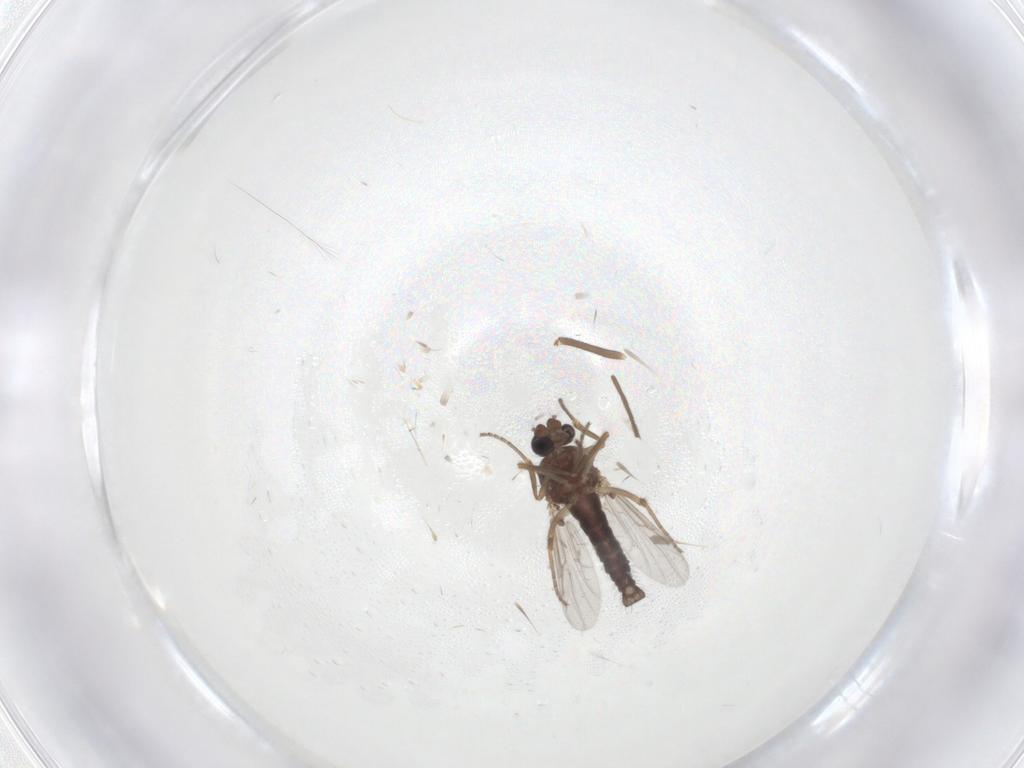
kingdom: Animalia
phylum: Arthropoda
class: Insecta
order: Diptera
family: Ceratopogonidae
